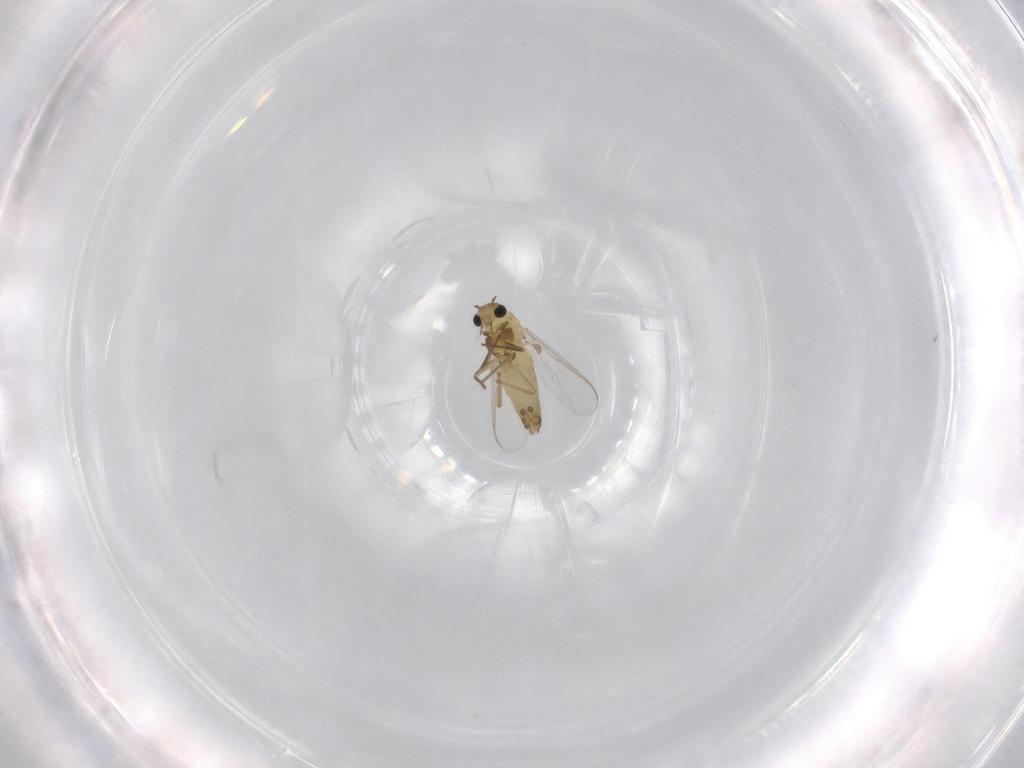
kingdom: Animalia
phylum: Arthropoda
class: Insecta
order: Diptera
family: Chironomidae
